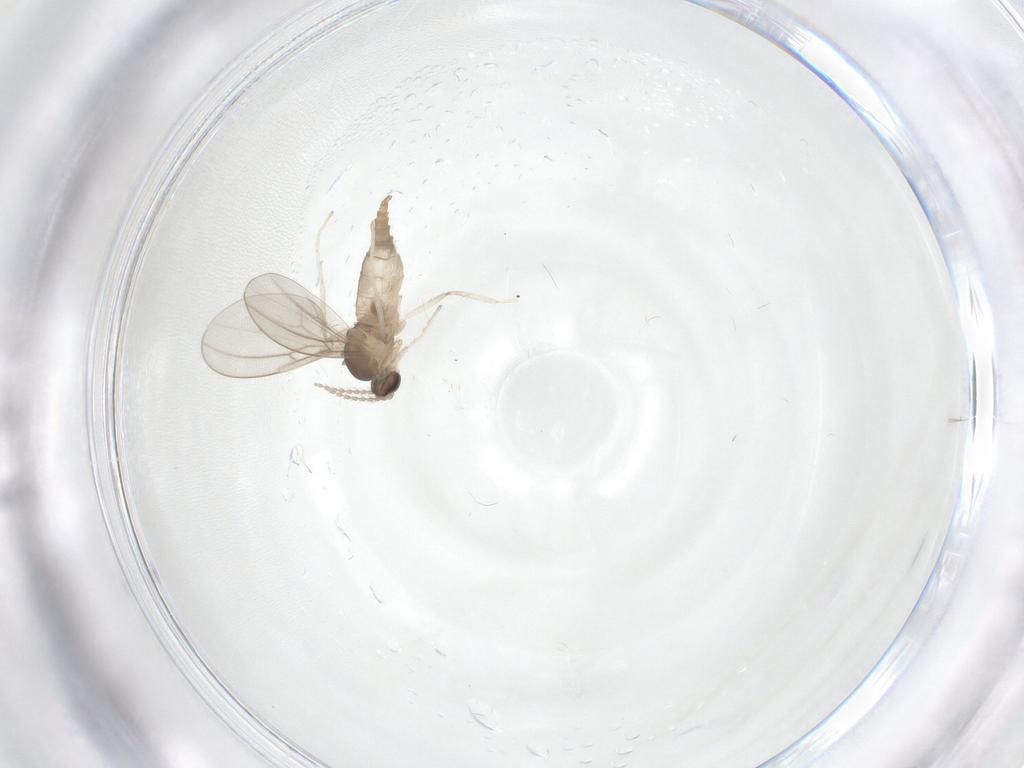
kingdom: Animalia
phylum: Arthropoda
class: Insecta
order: Diptera
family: Cecidomyiidae
